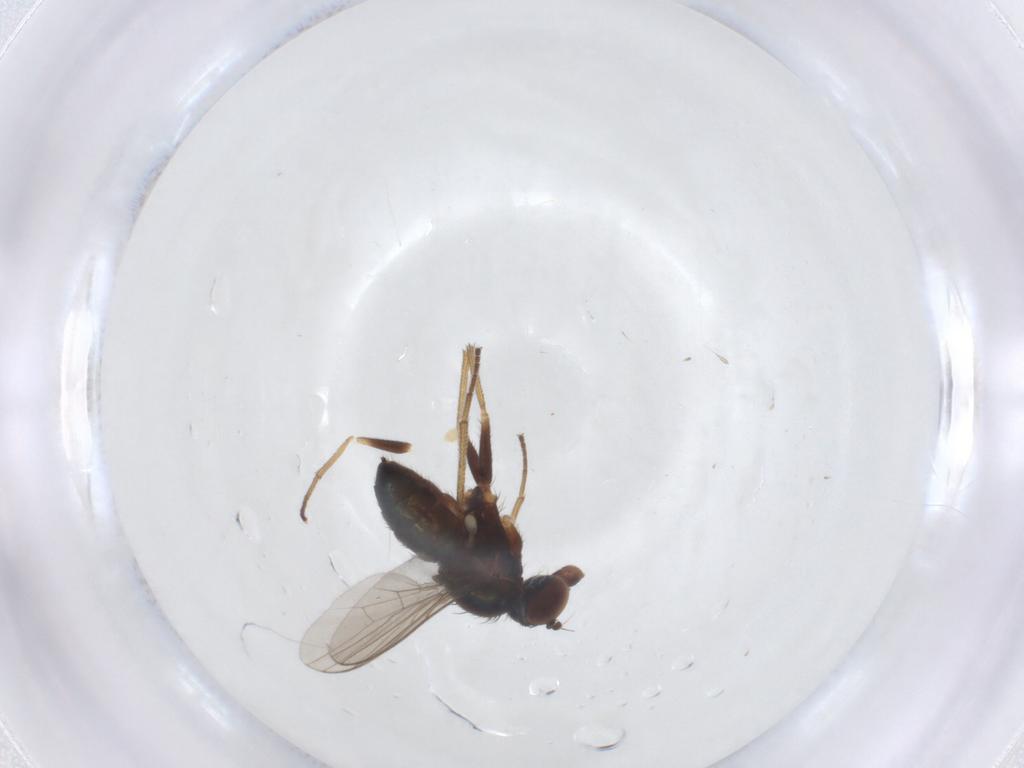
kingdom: Animalia
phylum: Arthropoda
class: Insecta
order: Diptera
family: Dolichopodidae
